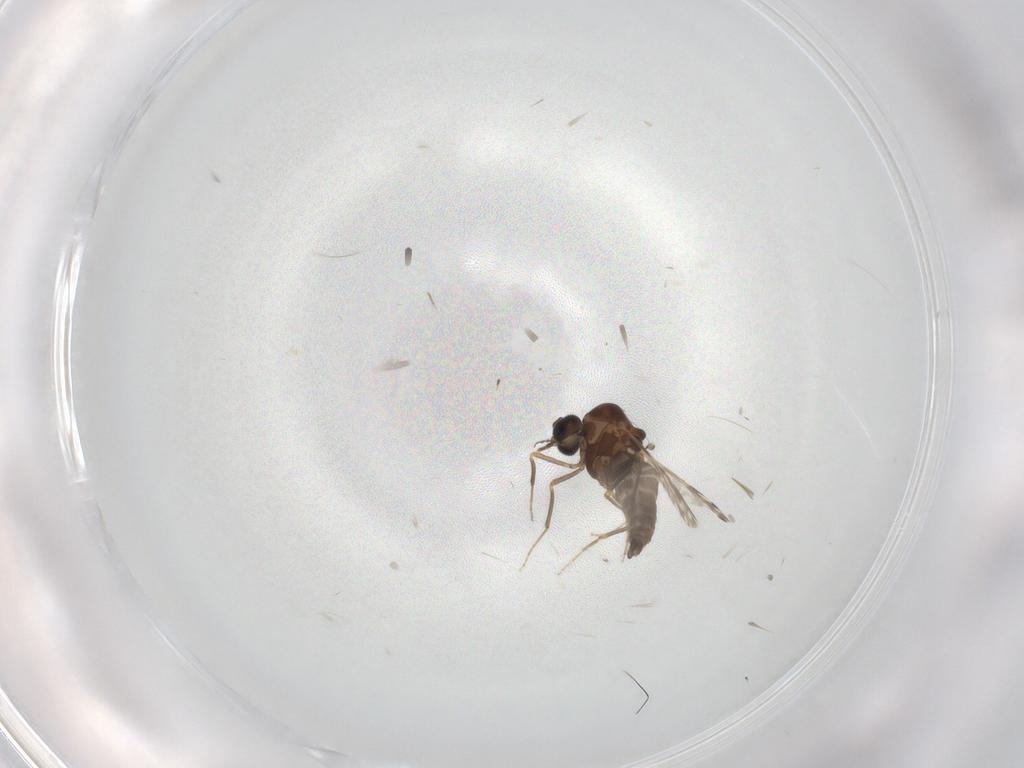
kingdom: Animalia
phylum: Arthropoda
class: Insecta
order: Diptera
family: Ceratopogonidae
